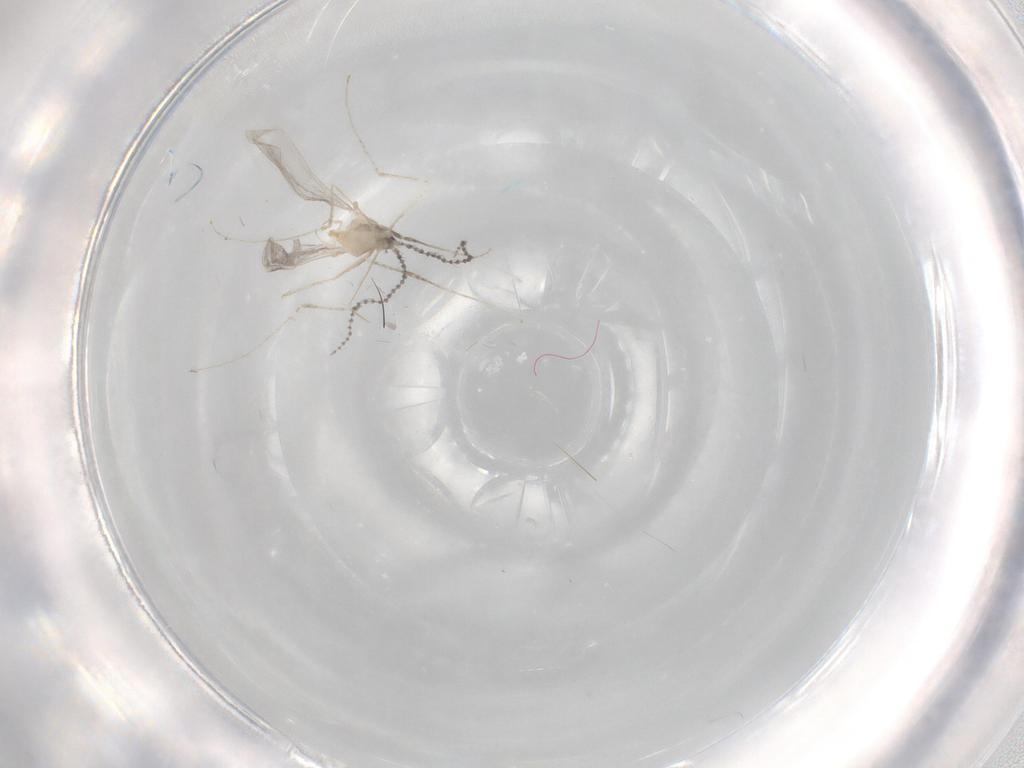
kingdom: Animalia
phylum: Arthropoda
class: Insecta
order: Diptera
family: Cecidomyiidae
